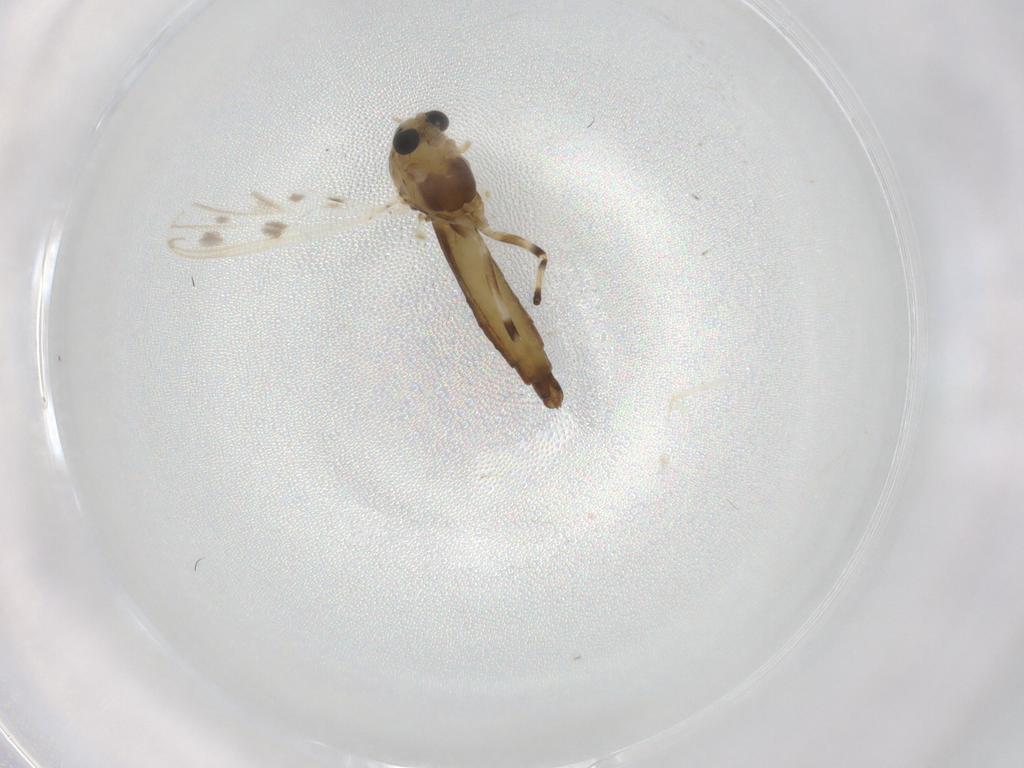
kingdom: Animalia
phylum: Arthropoda
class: Insecta
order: Diptera
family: Chironomidae
